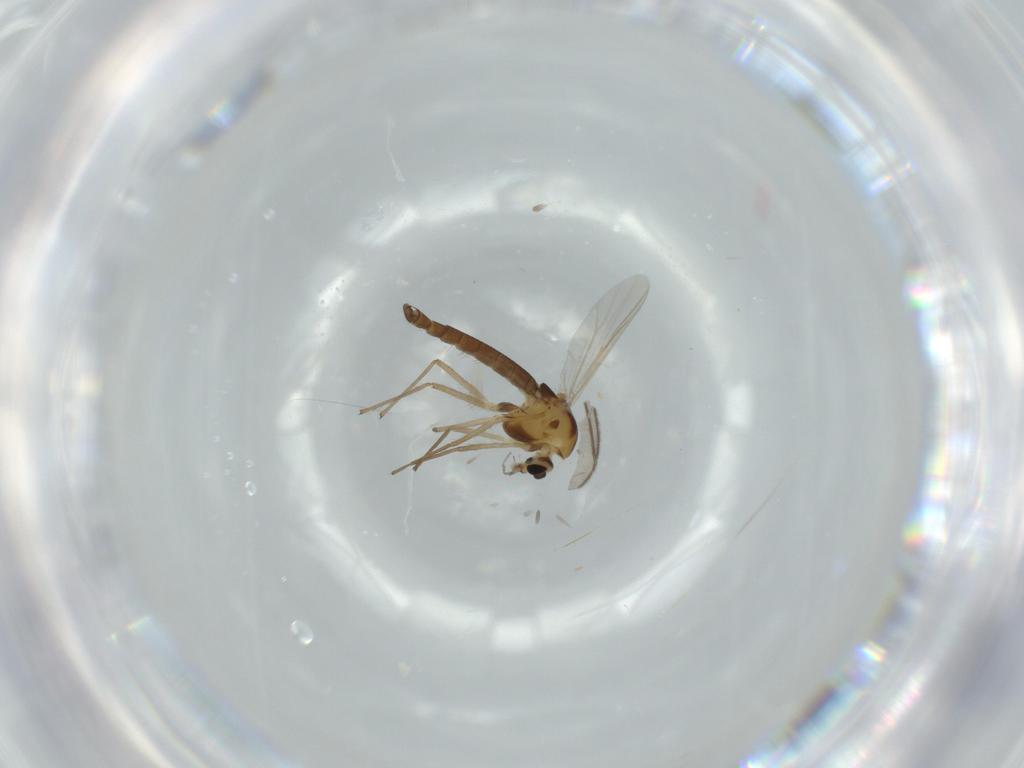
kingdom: Animalia
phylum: Arthropoda
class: Insecta
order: Diptera
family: Chironomidae
